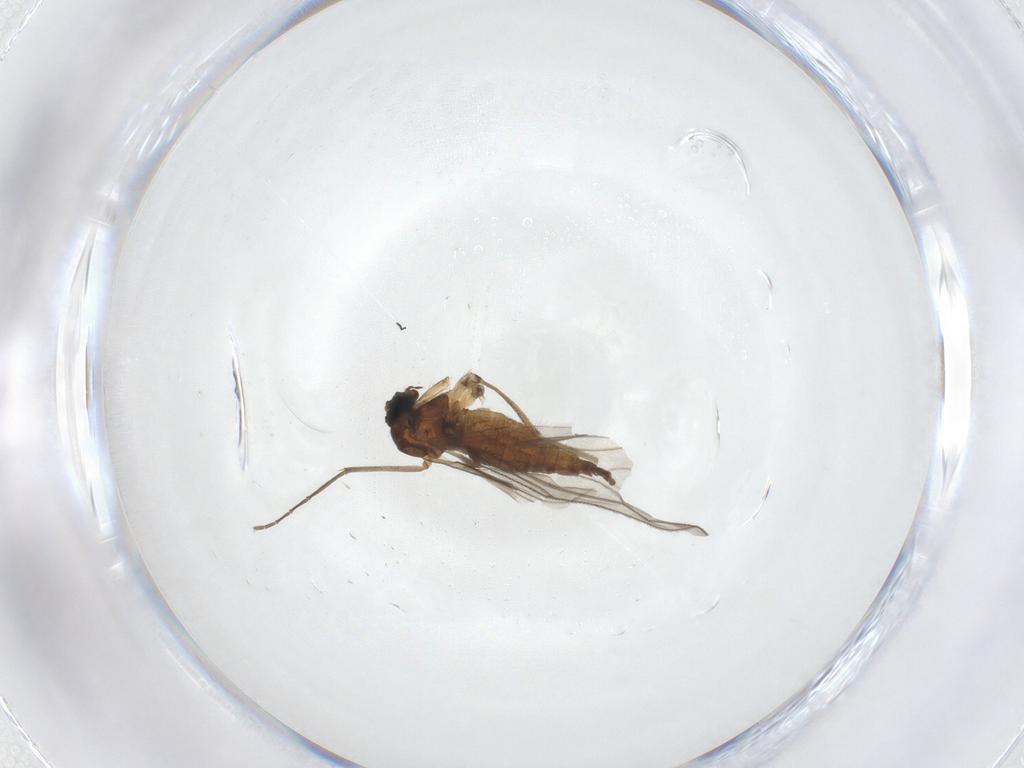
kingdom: Animalia
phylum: Arthropoda
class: Insecta
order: Diptera
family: Sciaridae
